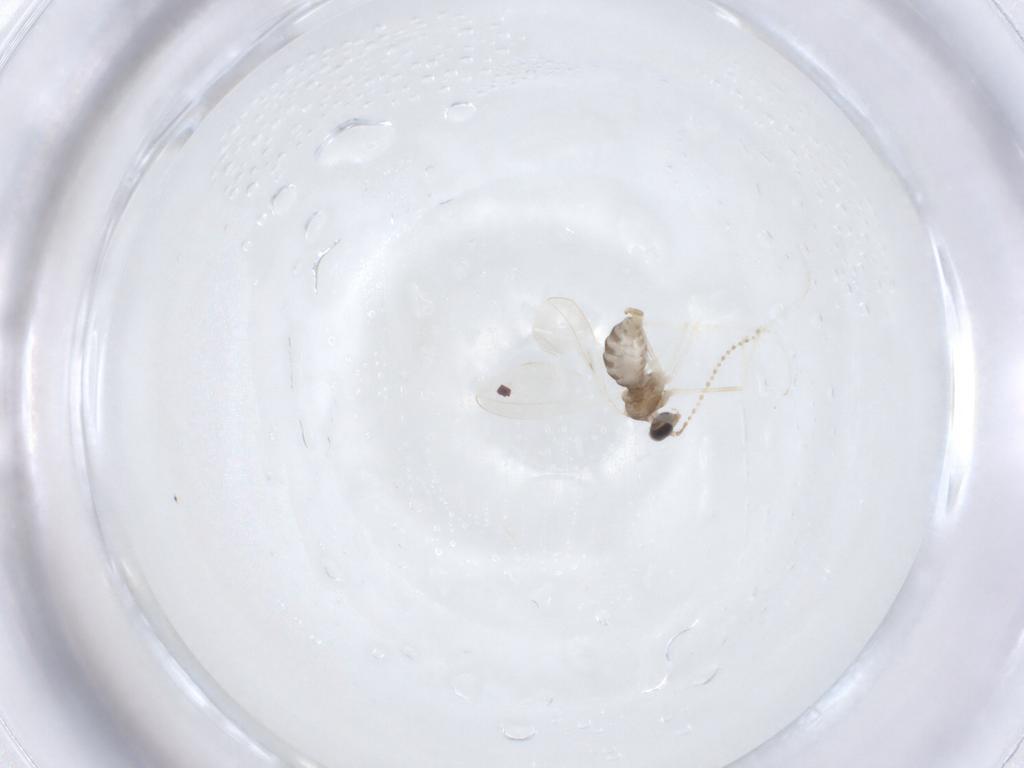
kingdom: Animalia
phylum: Arthropoda
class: Insecta
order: Diptera
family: Cecidomyiidae
